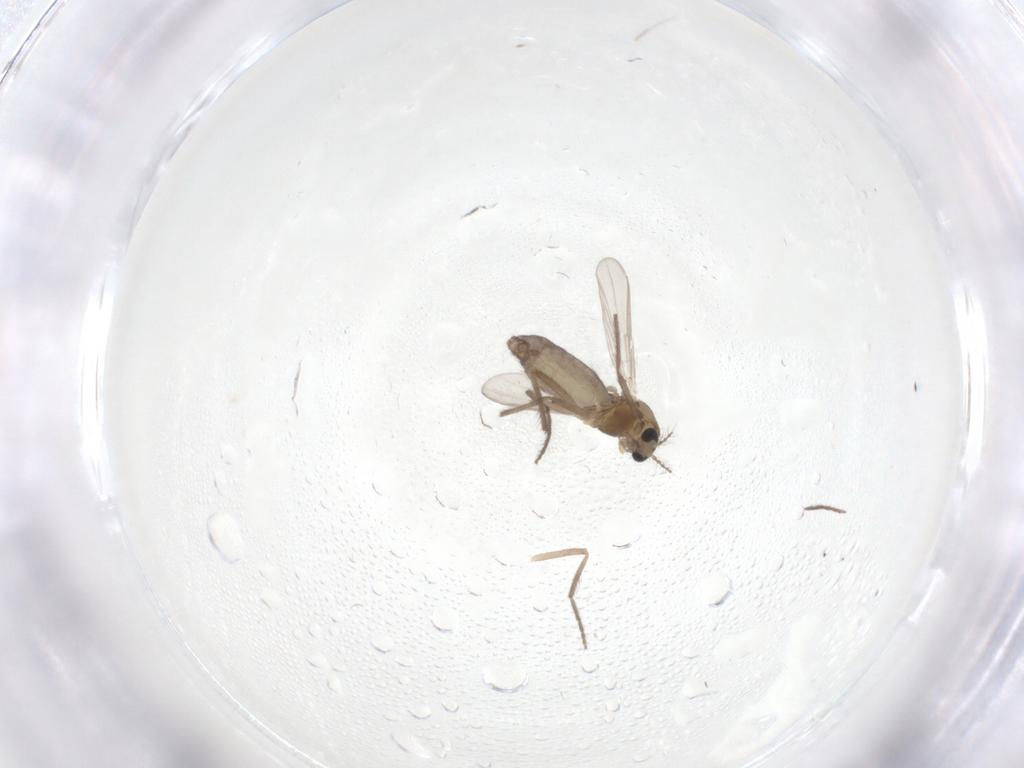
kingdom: Animalia
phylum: Arthropoda
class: Insecta
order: Diptera
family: Chironomidae
